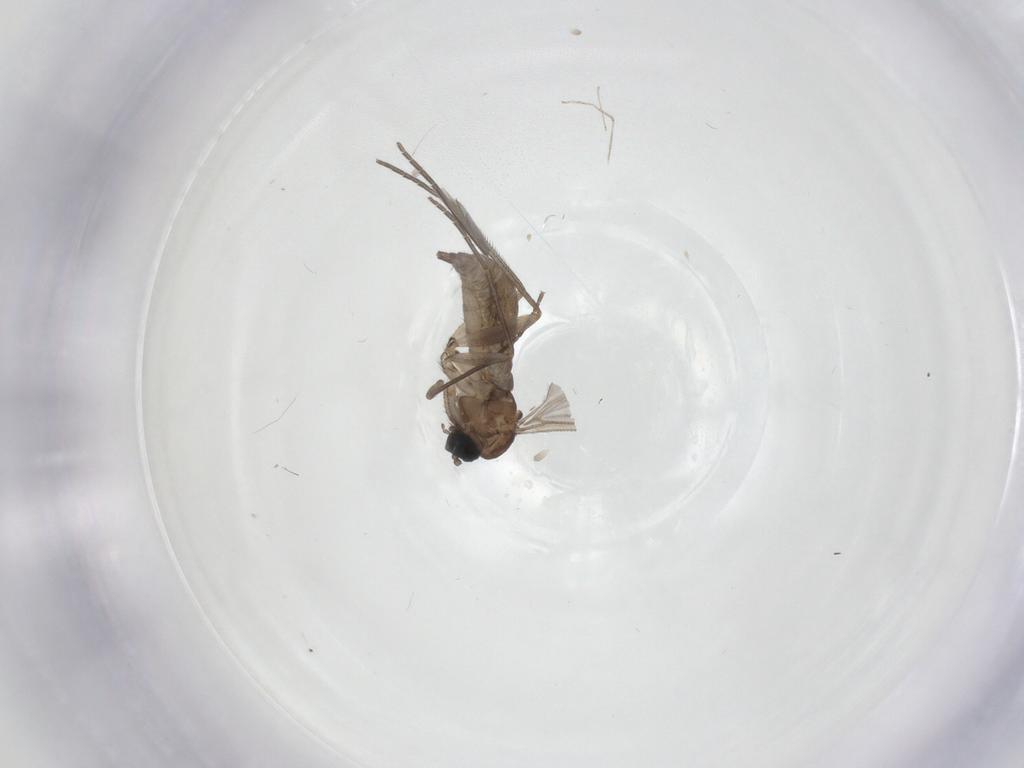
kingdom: Animalia
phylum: Arthropoda
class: Insecta
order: Diptera
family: Sciaridae
